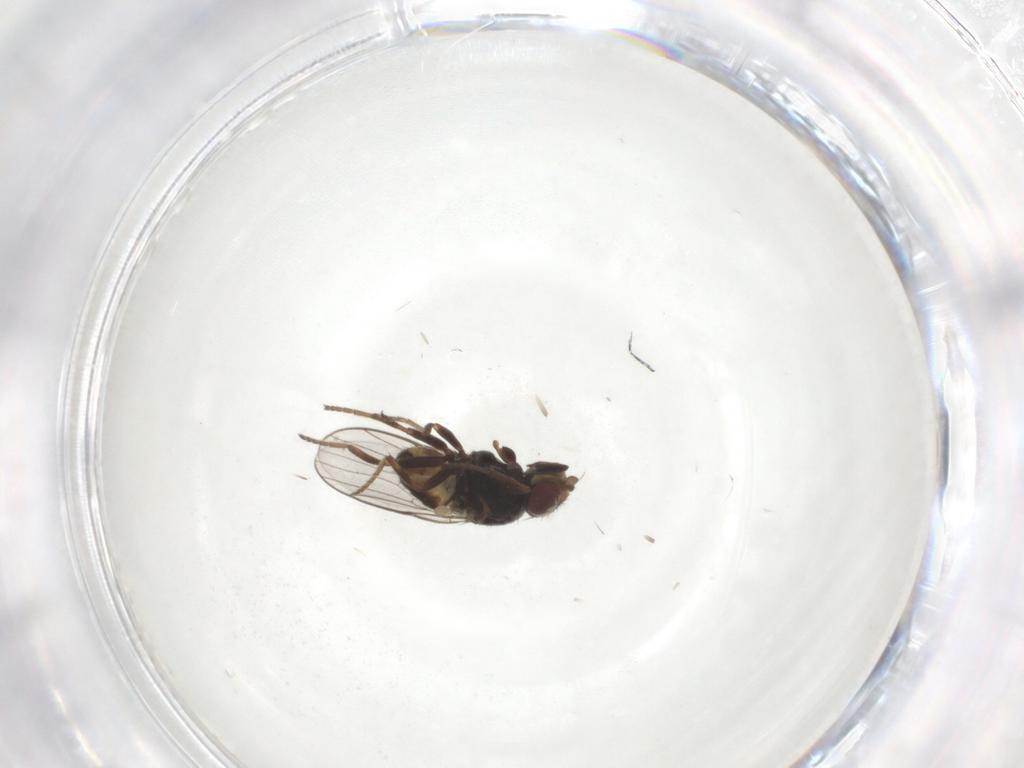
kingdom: Animalia
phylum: Arthropoda
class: Insecta
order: Diptera
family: Chloropidae
